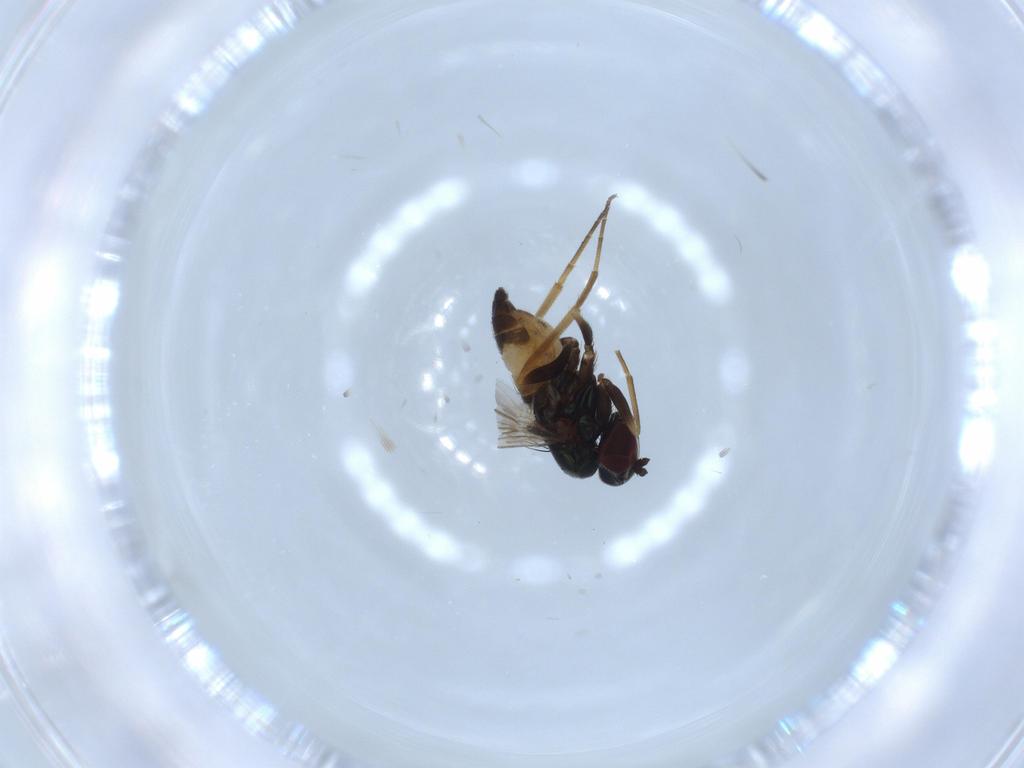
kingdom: Animalia
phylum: Arthropoda
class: Insecta
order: Diptera
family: Dolichopodidae
